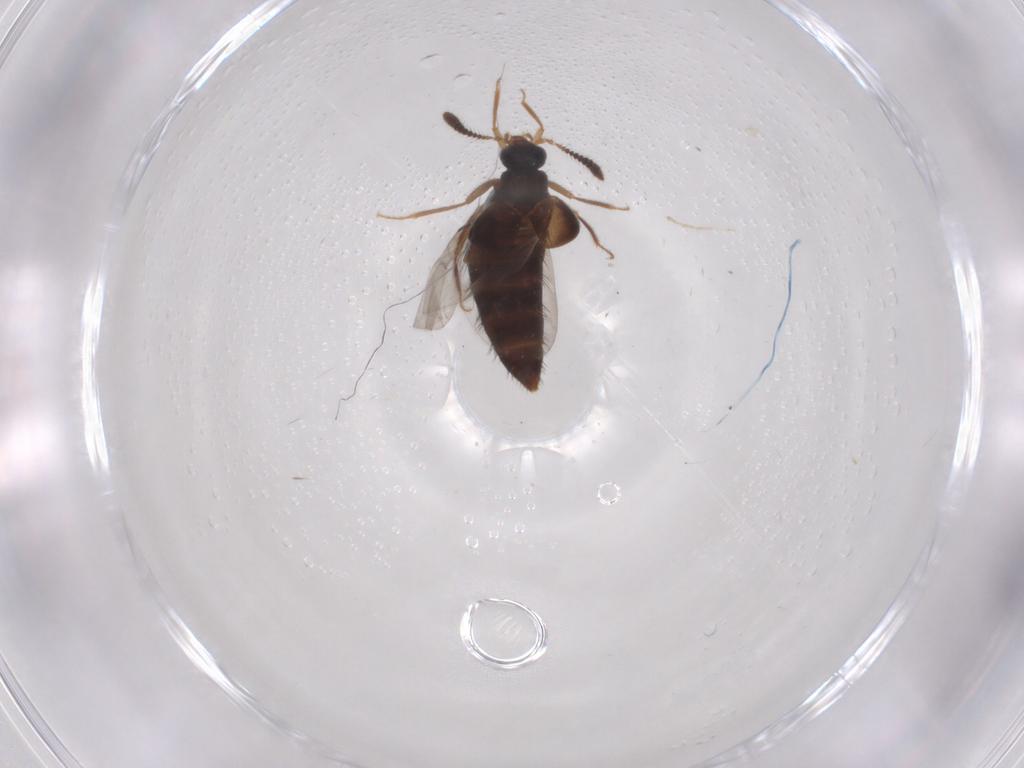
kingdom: Animalia
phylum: Arthropoda
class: Insecta
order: Coleoptera
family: Staphylinidae
